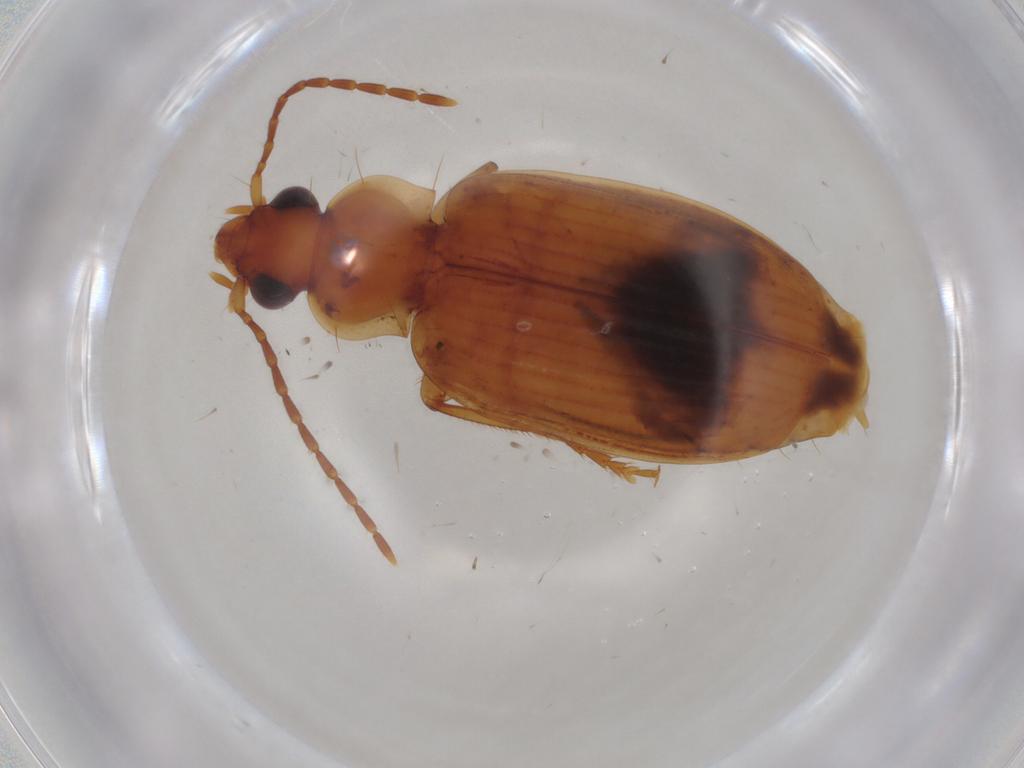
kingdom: Animalia
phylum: Arthropoda
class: Insecta
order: Coleoptera
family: Carabidae
